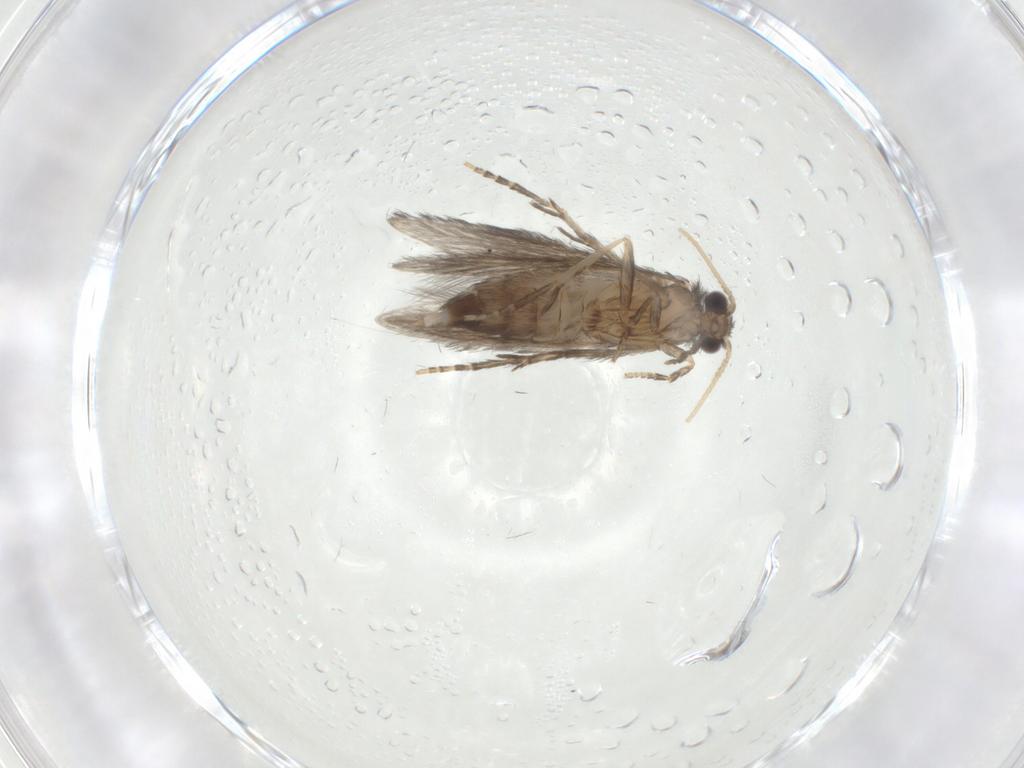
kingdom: Animalia
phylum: Arthropoda
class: Insecta
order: Trichoptera
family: Hydroptilidae
